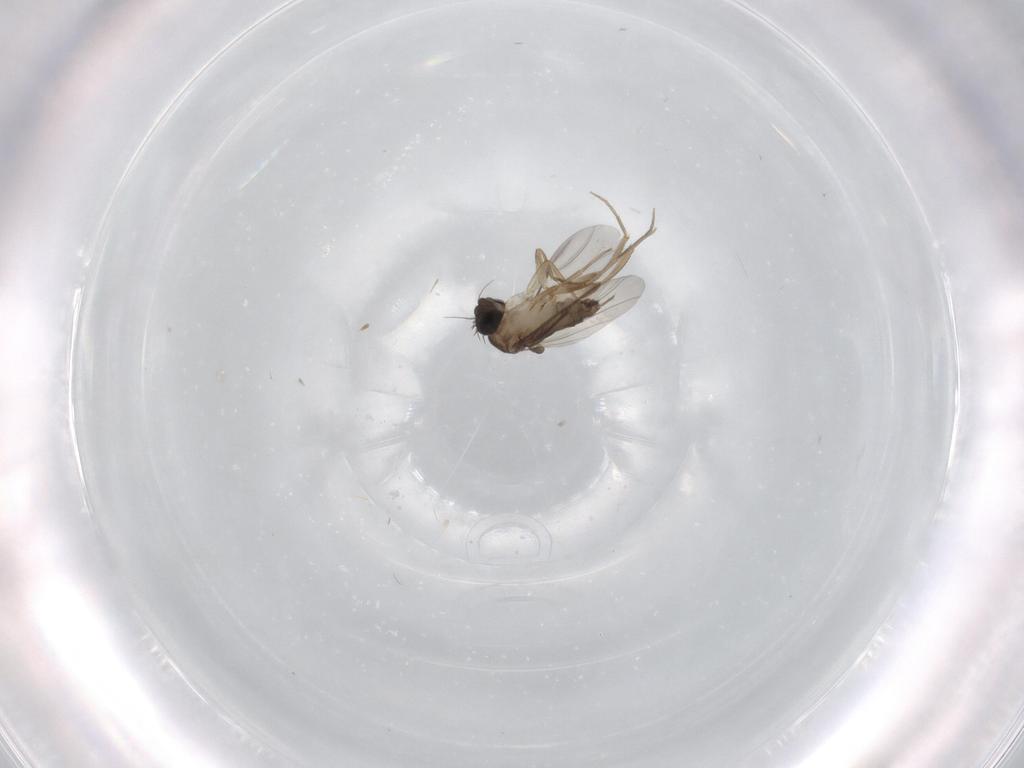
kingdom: Animalia
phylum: Arthropoda
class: Insecta
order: Diptera
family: Phoridae
